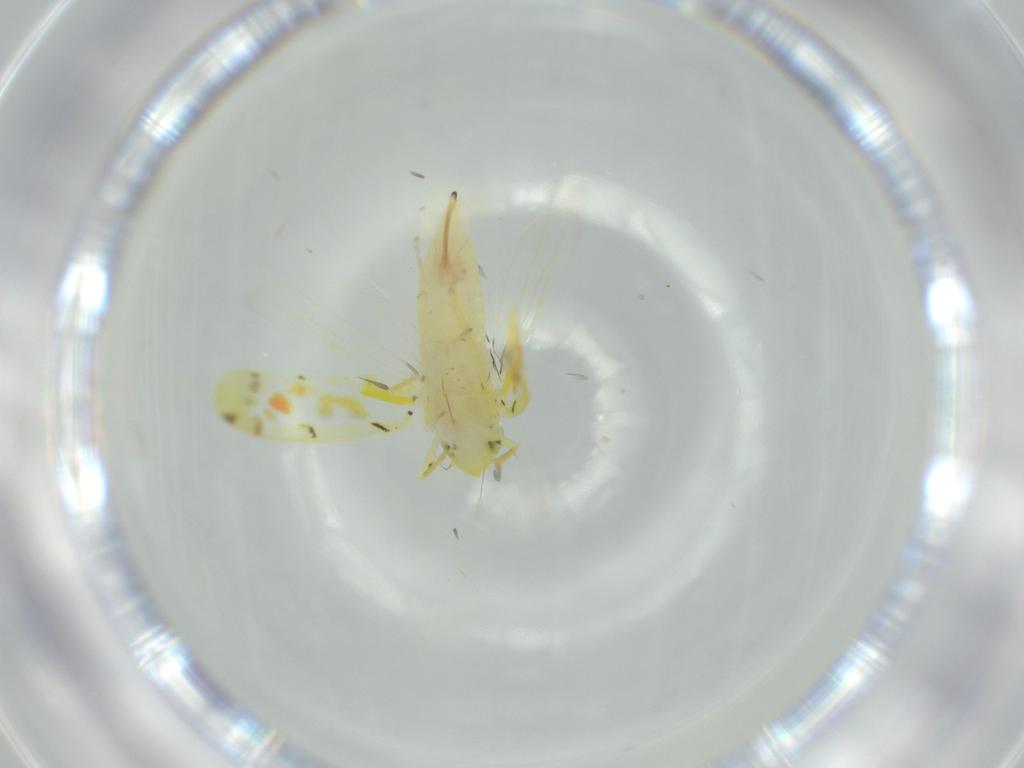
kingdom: Animalia
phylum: Arthropoda
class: Insecta
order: Hemiptera
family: Cicadellidae
